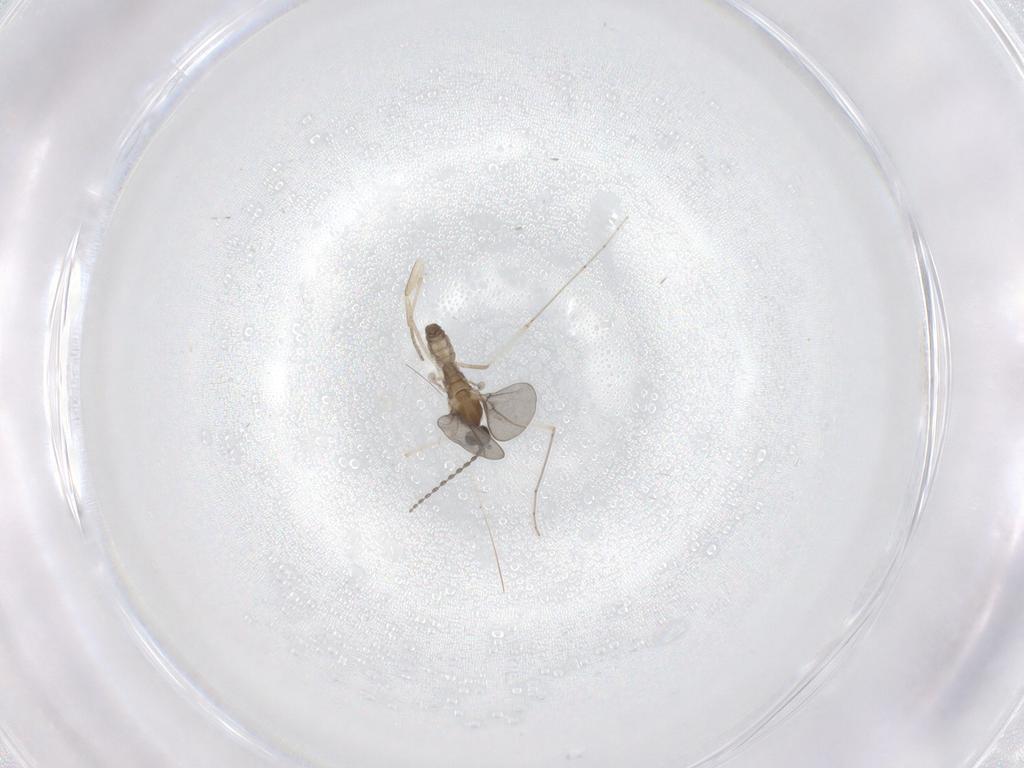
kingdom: Animalia
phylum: Arthropoda
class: Insecta
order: Diptera
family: Cecidomyiidae
